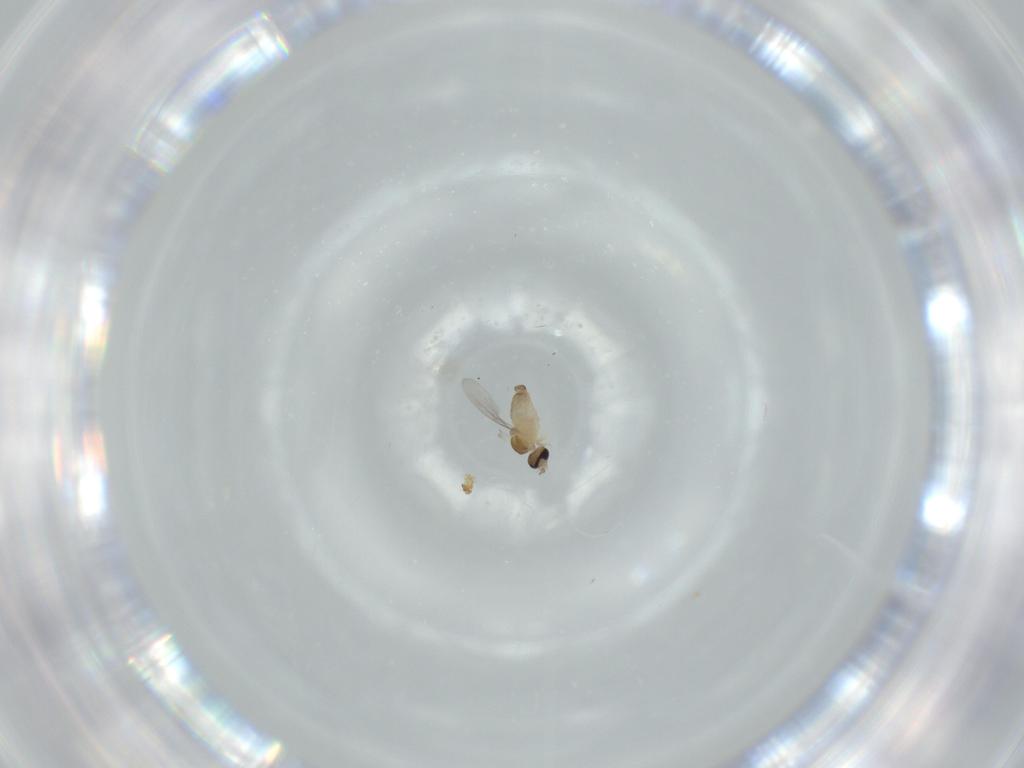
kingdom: Animalia
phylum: Arthropoda
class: Insecta
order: Diptera
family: Cecidomyiidae
